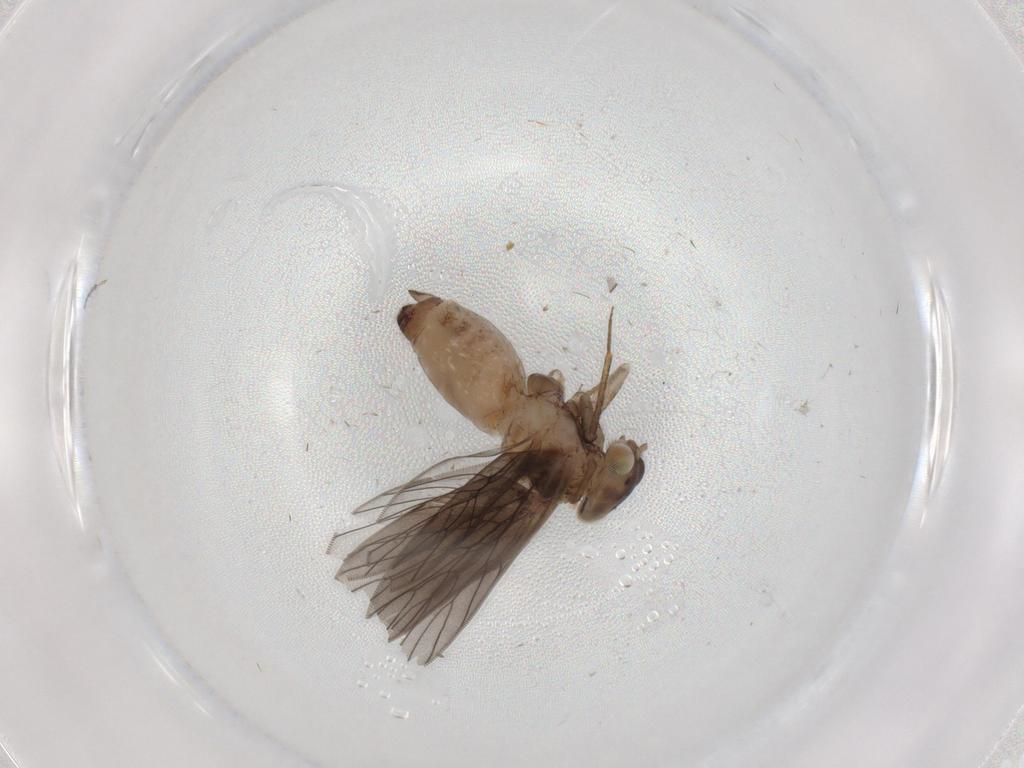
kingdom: Animalia
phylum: Arthropoda
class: Insecta
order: Psocodea
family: Lepidopsocidae
